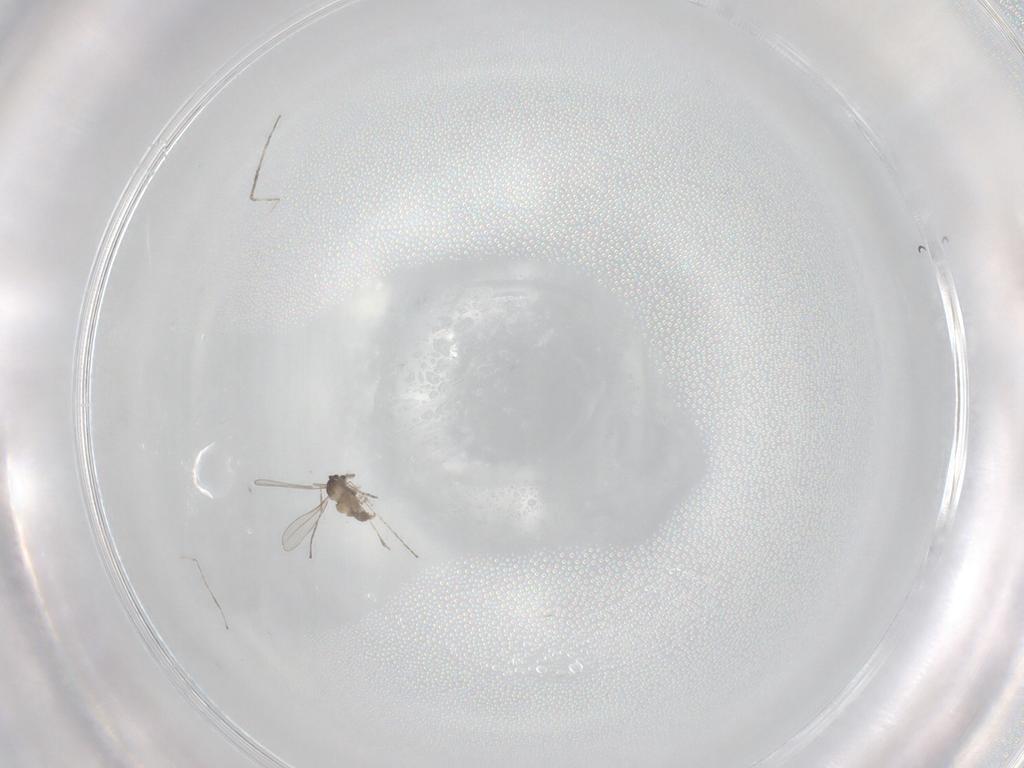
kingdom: Animalia
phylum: Arthropoda
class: Insecta
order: Diptera
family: Cecidomyiidae
